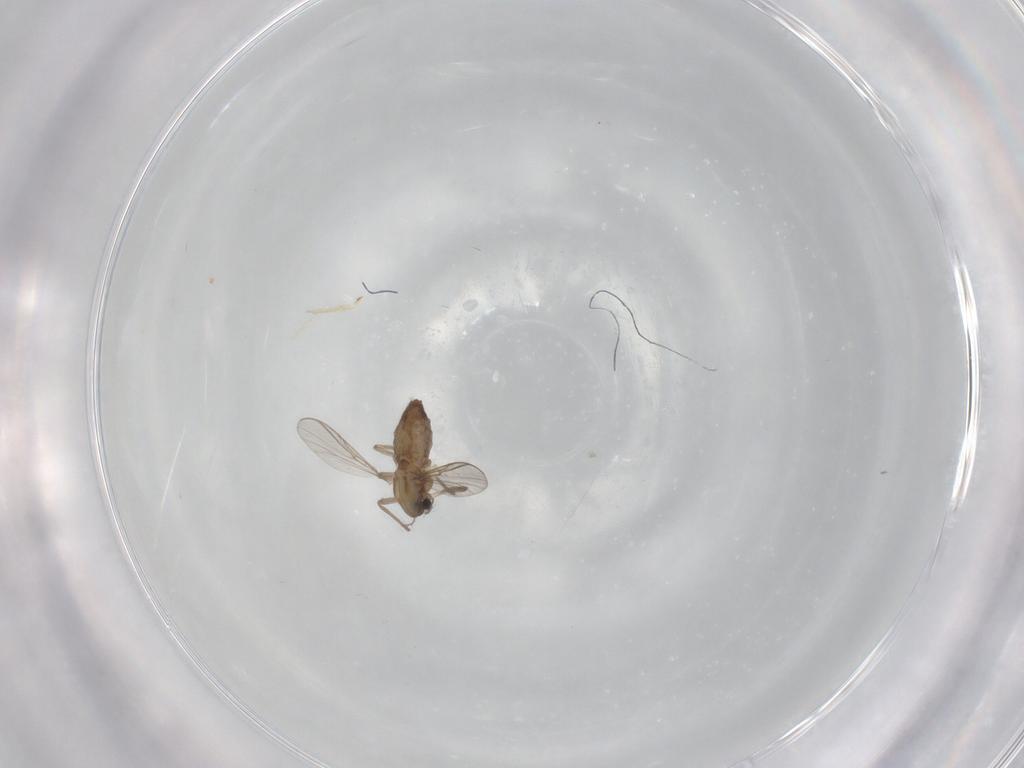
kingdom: Animalia
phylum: Arthropoda
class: Insecta
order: Diptera
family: Chironomidae
